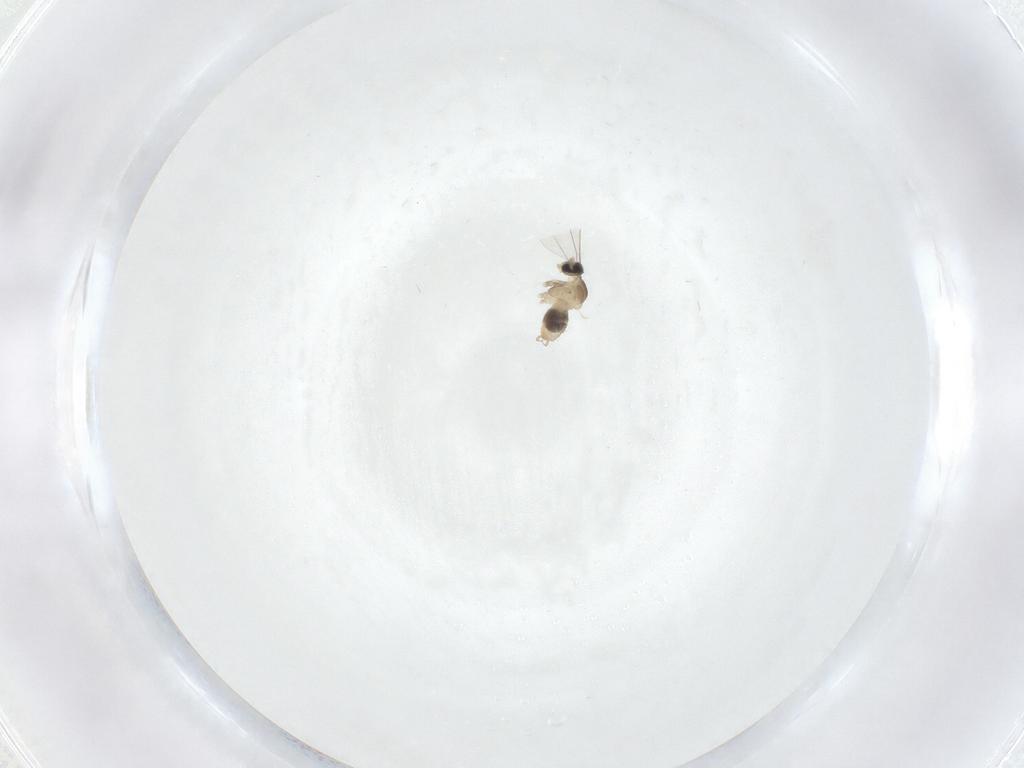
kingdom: Animalia
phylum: Arthropoda
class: Insecta
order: Diptera
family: Cecidomyiidae
